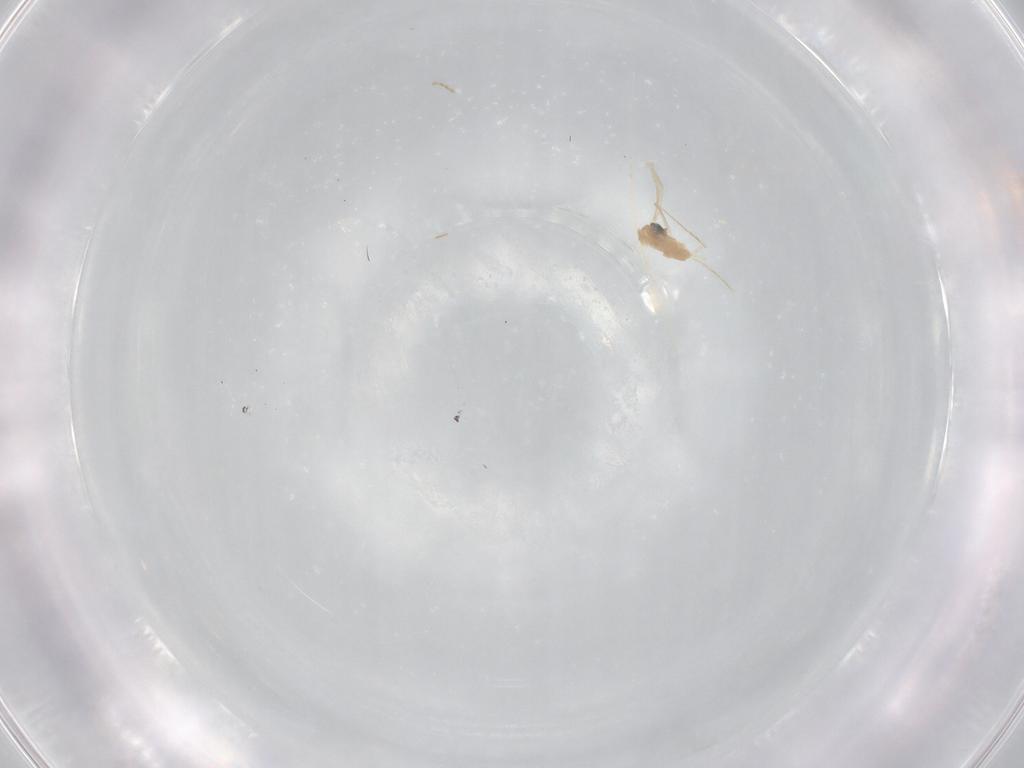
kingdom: Animalia
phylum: Arthropoda
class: Insecta
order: Diptera
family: Cecidomyiidae
